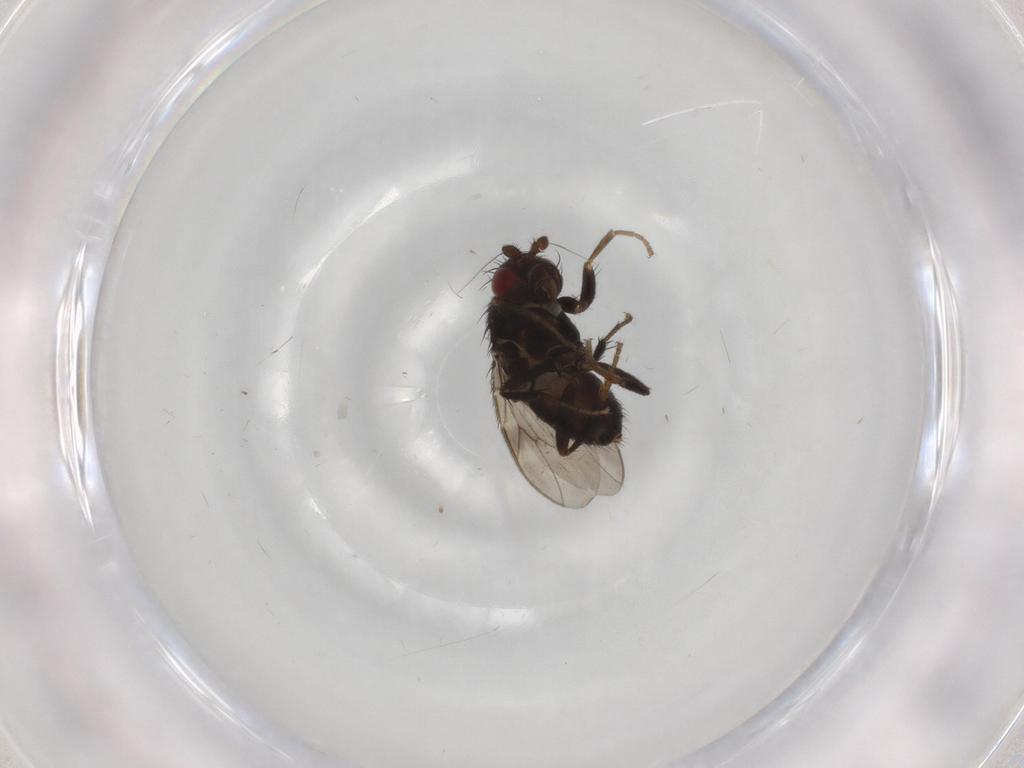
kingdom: Animalia
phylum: Arthropoda
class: Insecta
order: Diptera
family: Sphaeroceridae
